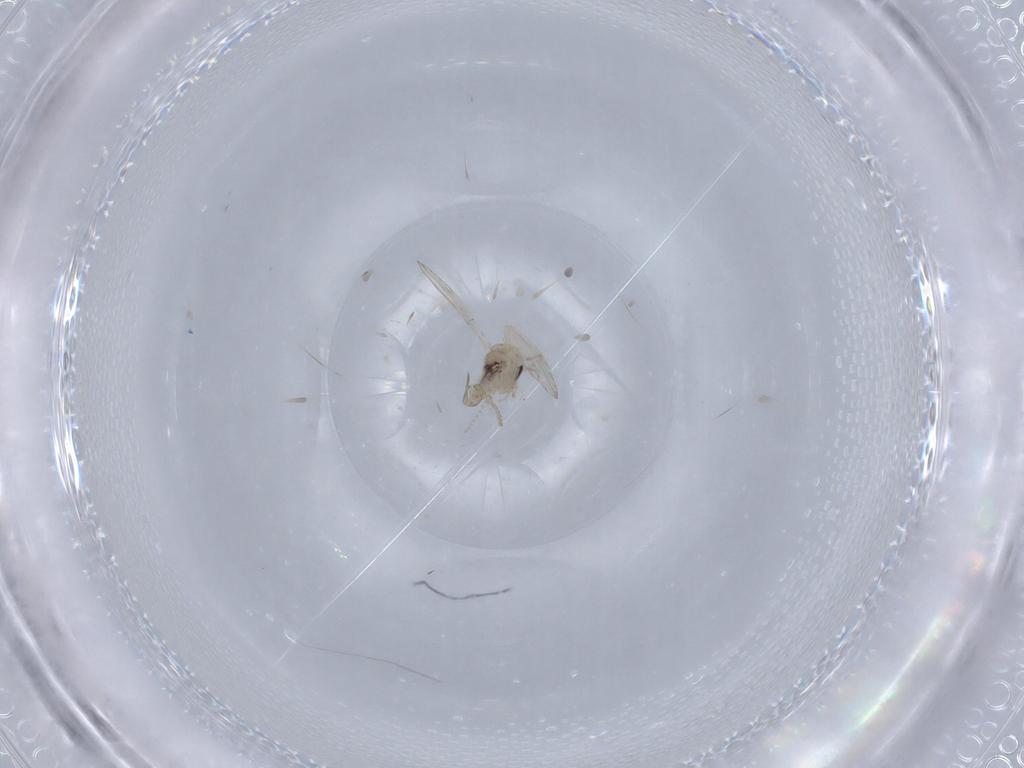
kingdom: Animalia
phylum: Arthropoda
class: Insecta
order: Diptera
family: Psychodidae
